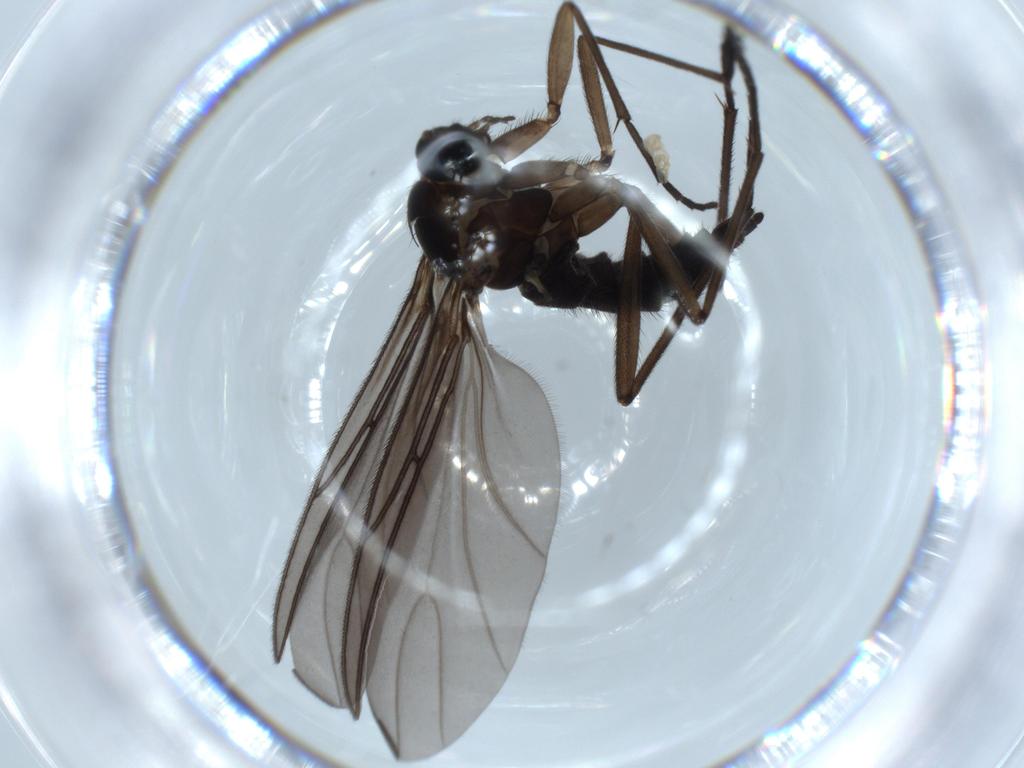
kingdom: Animalia
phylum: Arthropoda
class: Insecta
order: Diptera
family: Sciaridae
